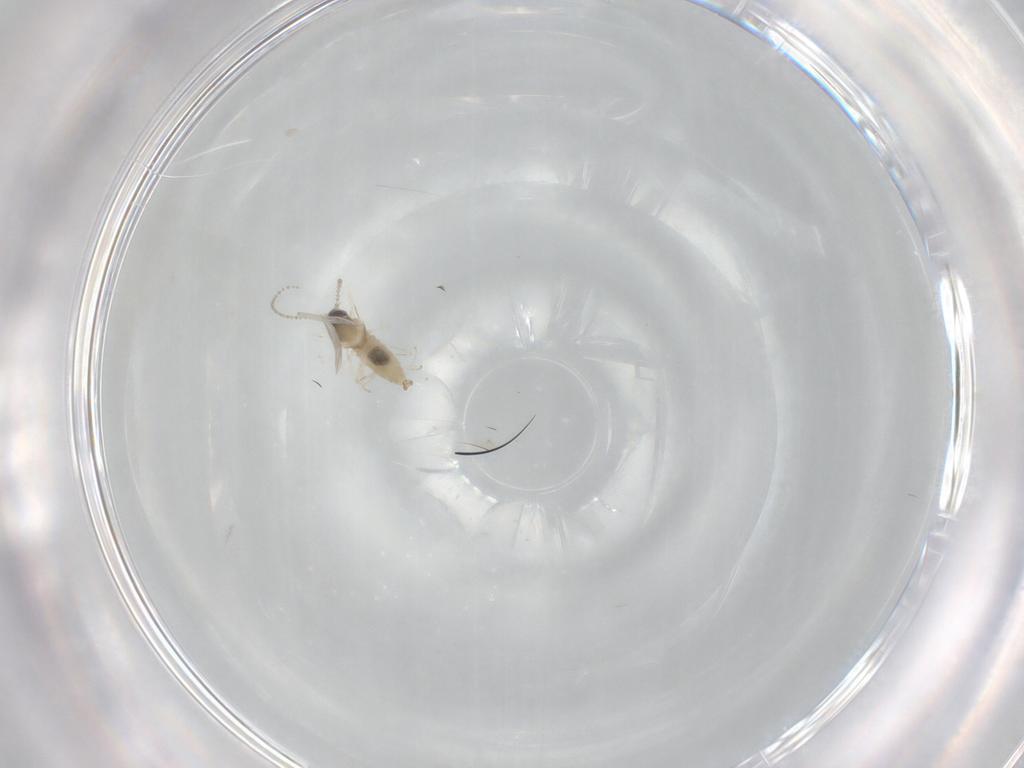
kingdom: Animalia
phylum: Arthropoda
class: Insecta
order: Diptera
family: Cecidomyiidae
